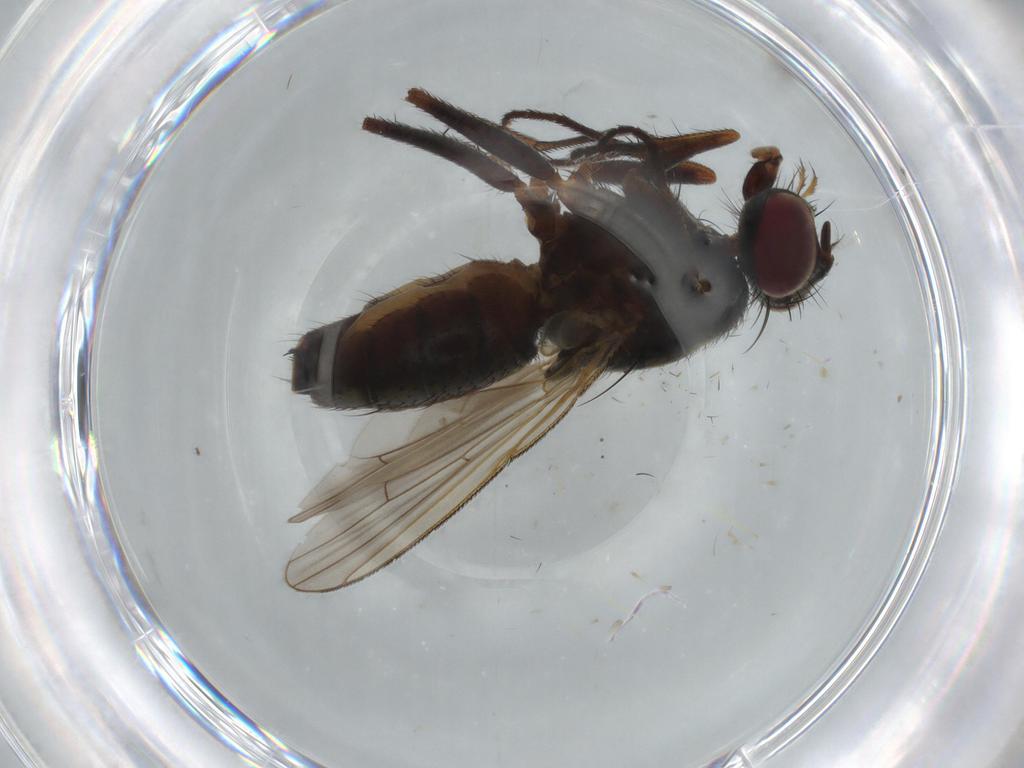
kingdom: Animalia
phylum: Arthropoda
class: Insecta
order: Diptera
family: Muscidae
